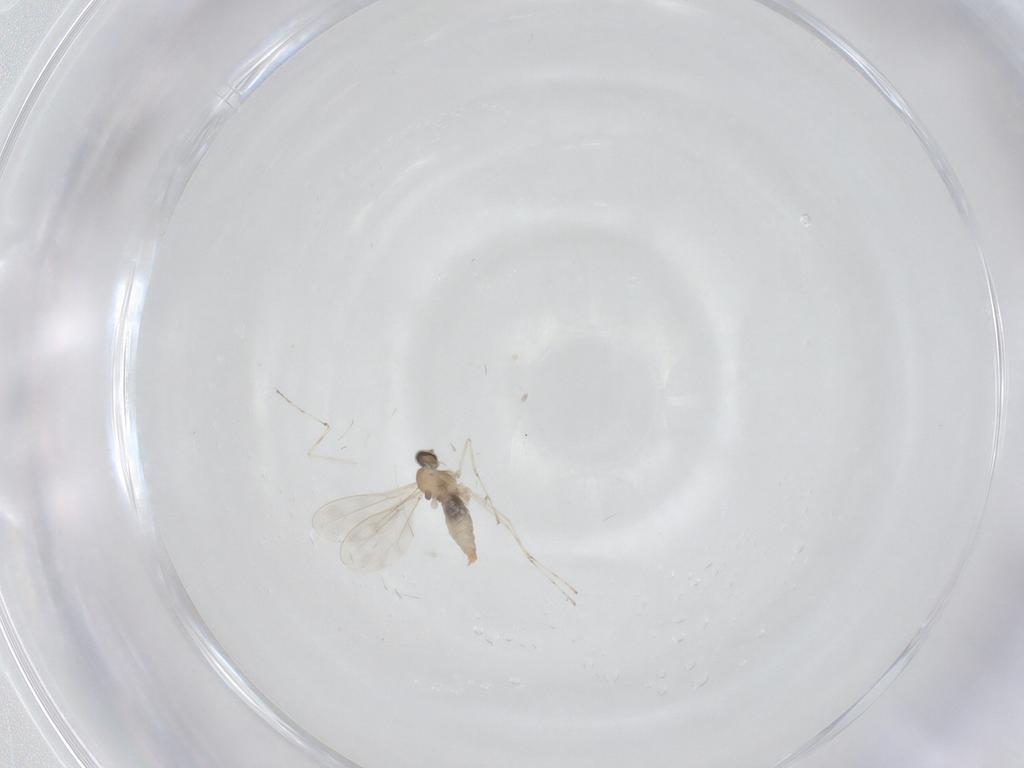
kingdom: Animalia
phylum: Arthropoda
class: Insecta
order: Diptera
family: Cecidomyiidae
